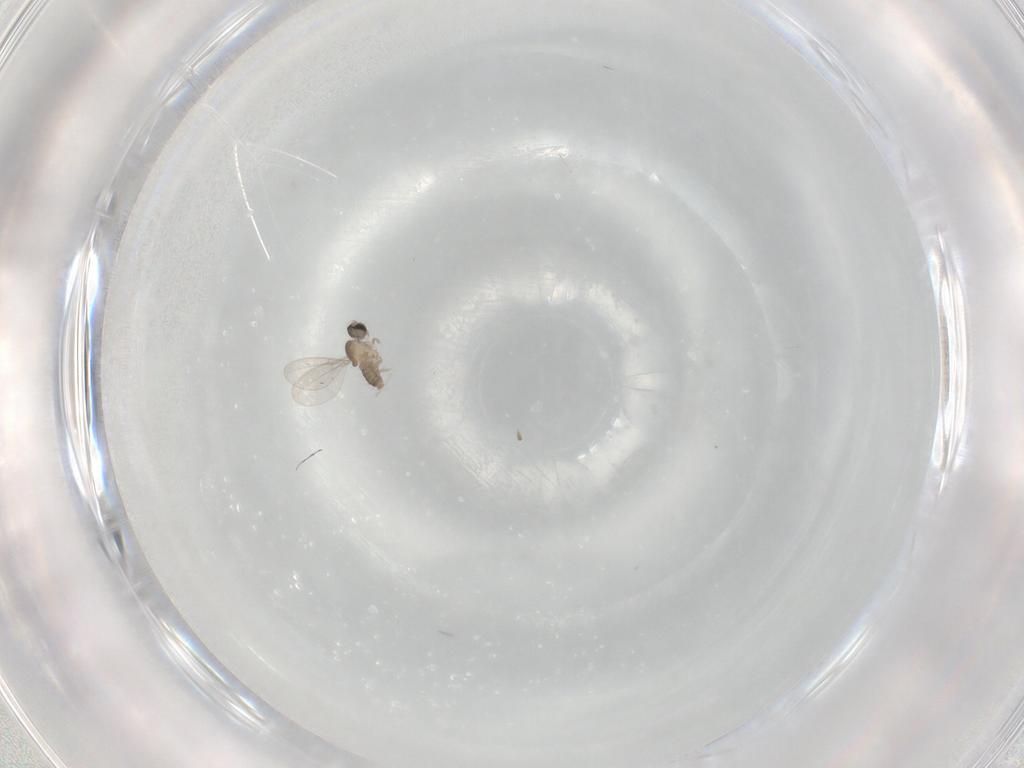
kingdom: Animalia
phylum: Arthropoda
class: Insecta
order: Diptera
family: Cecidomyiidae
